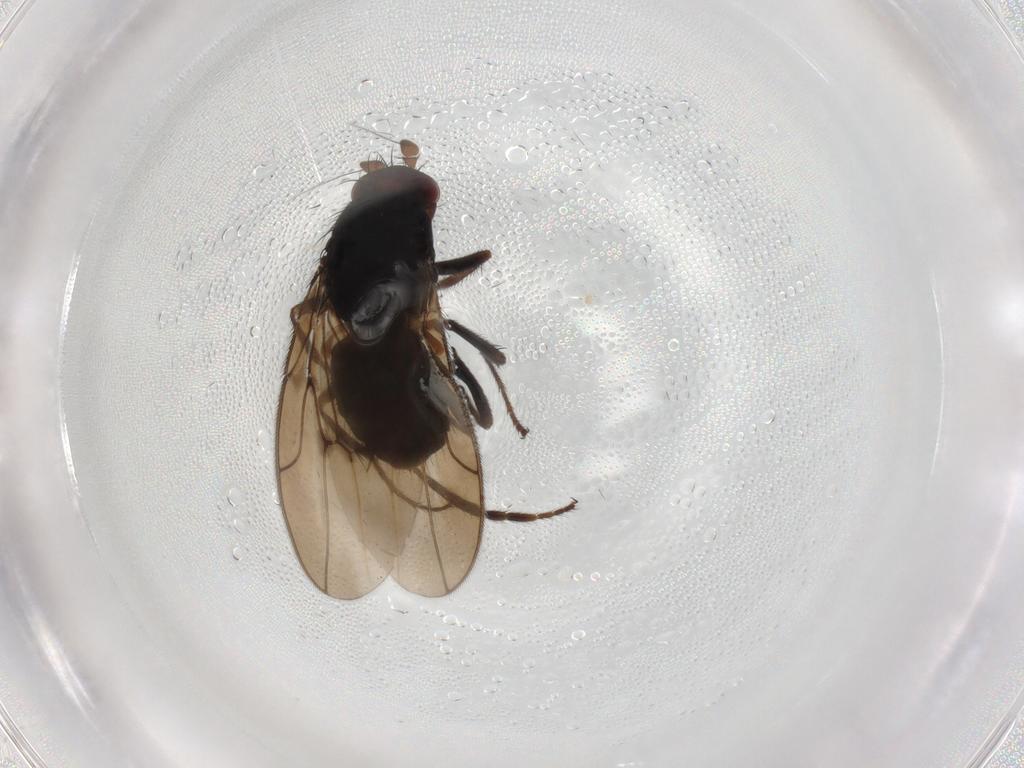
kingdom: Animalia
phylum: Arthropoda
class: Insecta
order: Diptera
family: Sphaeroceridae
